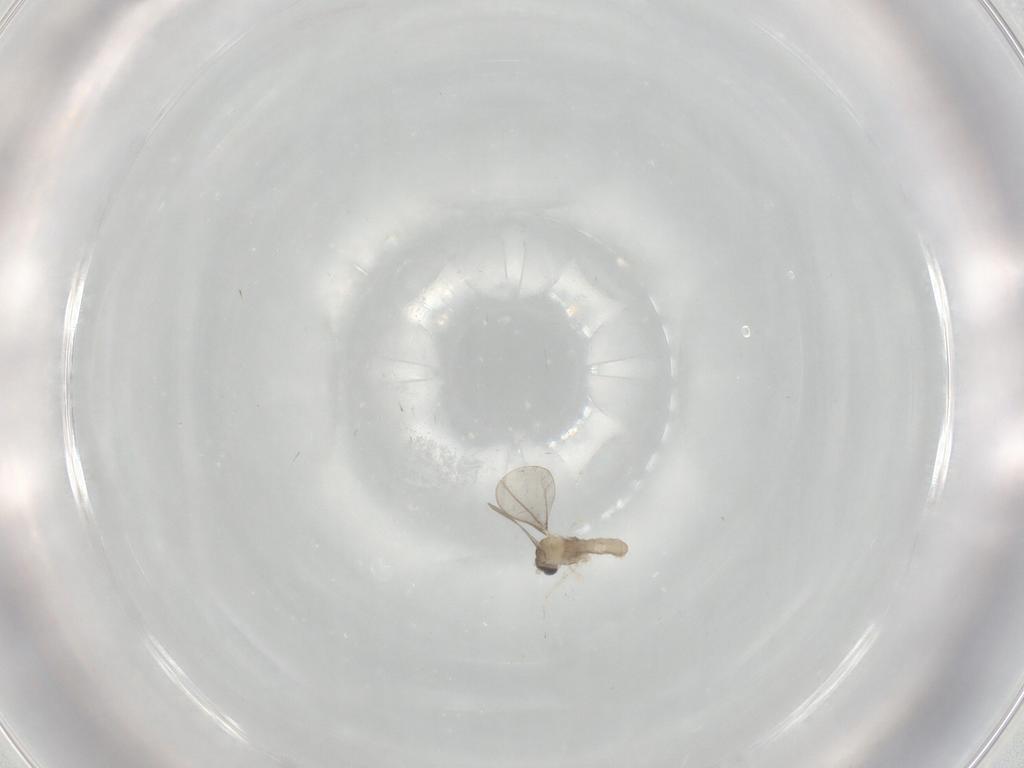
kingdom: Animalia
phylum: Arthropoda
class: Insecta
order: Diptera
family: Cecidomyiidae
